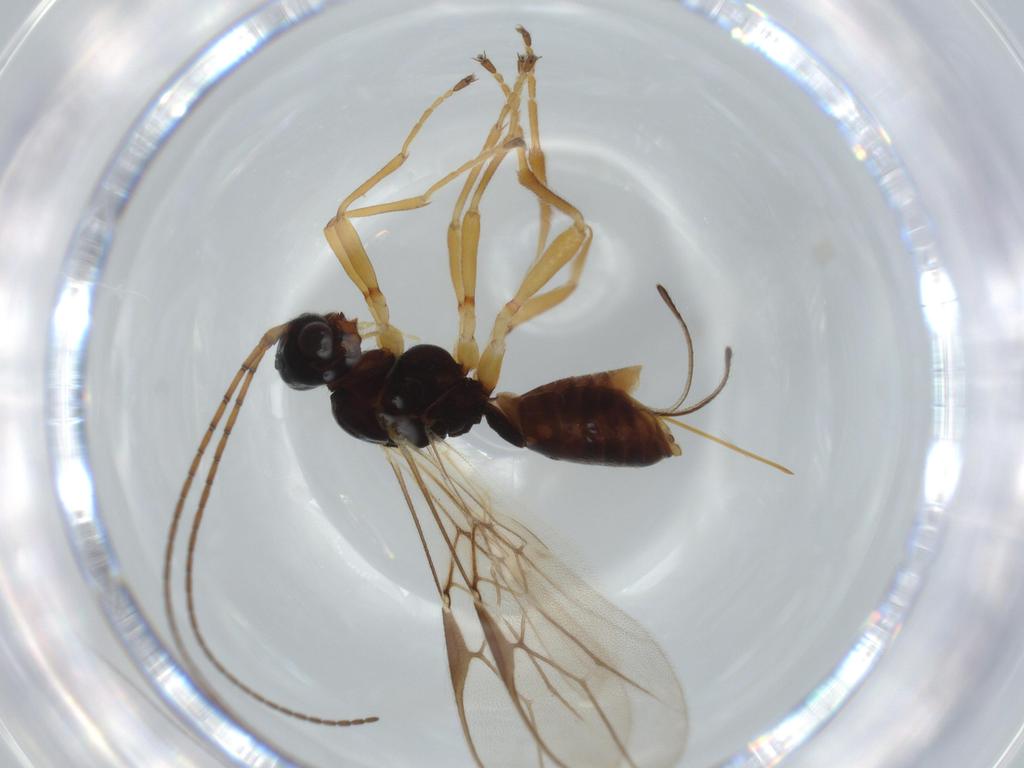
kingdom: Animalia
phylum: Arthropoda
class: Insecta
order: Hymenoptera
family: Braconidae
